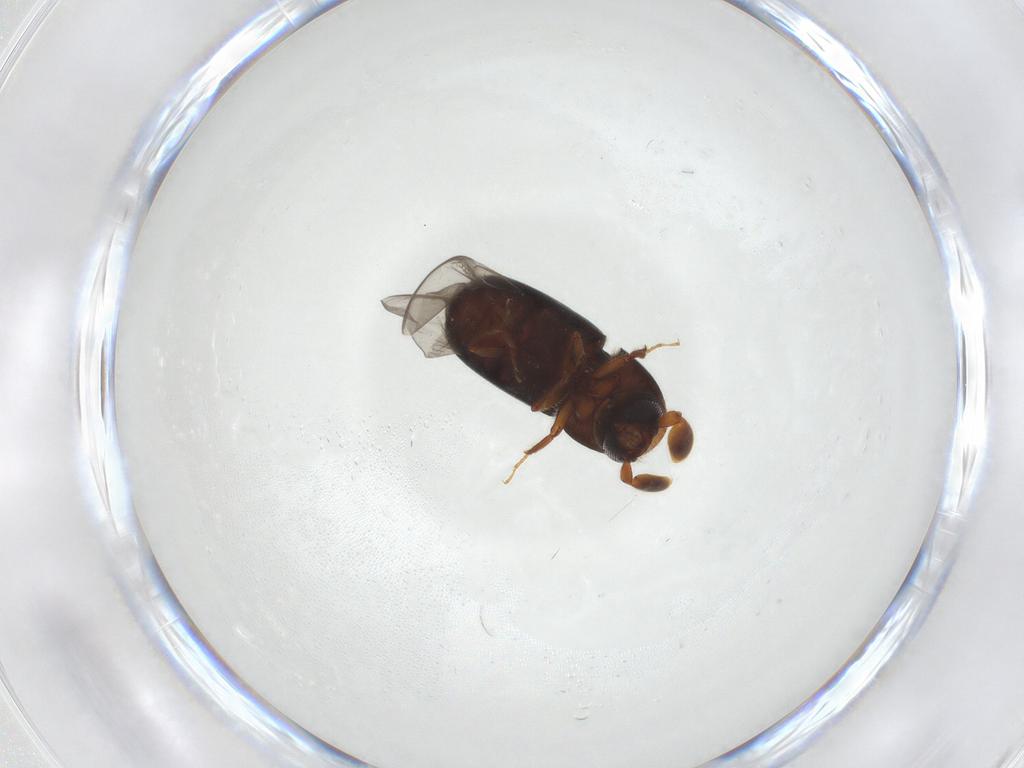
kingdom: Animalia
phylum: Arthropoda
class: Insecta
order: Coleoptera
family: Curculionidae
